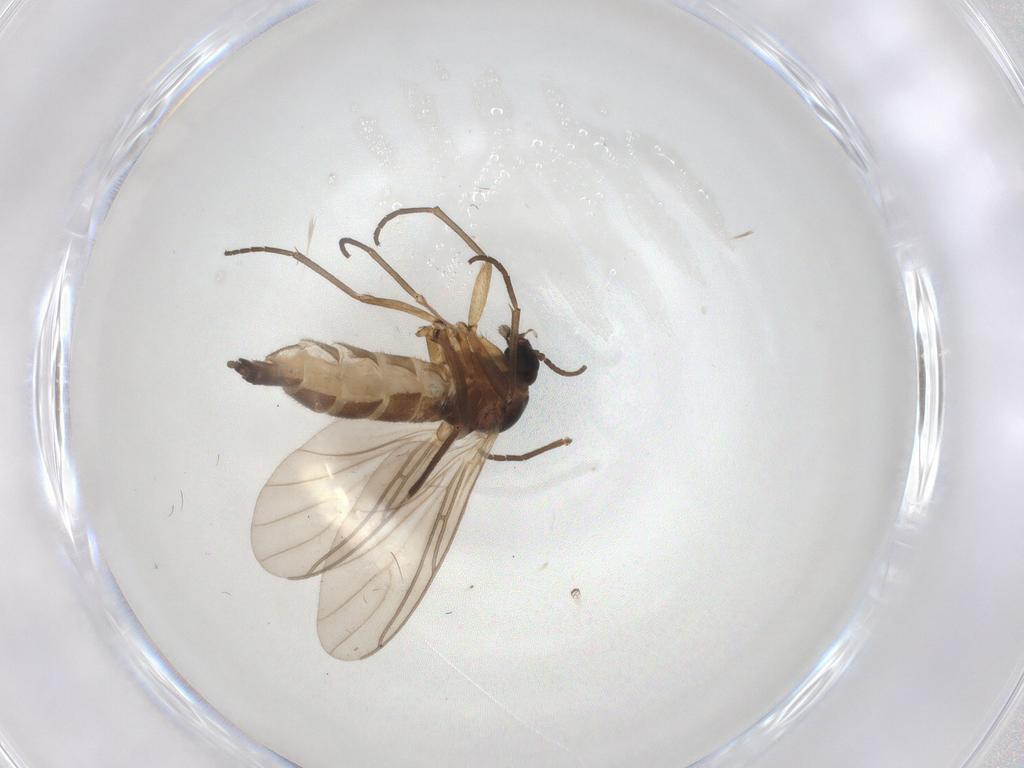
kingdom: Animalia
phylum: Arthropoda
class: Insecta
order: Diptera
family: Sciaridae
